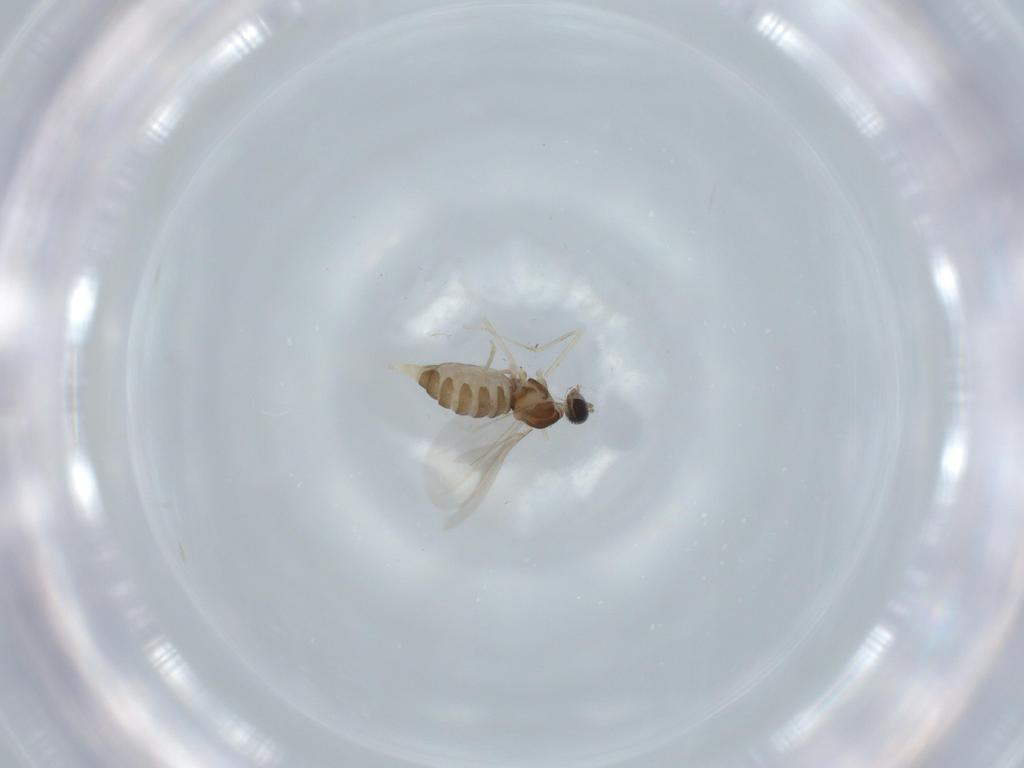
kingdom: Animalia
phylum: Arthropoda
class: Insecta
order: Diptera
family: Cecidomyiidae
